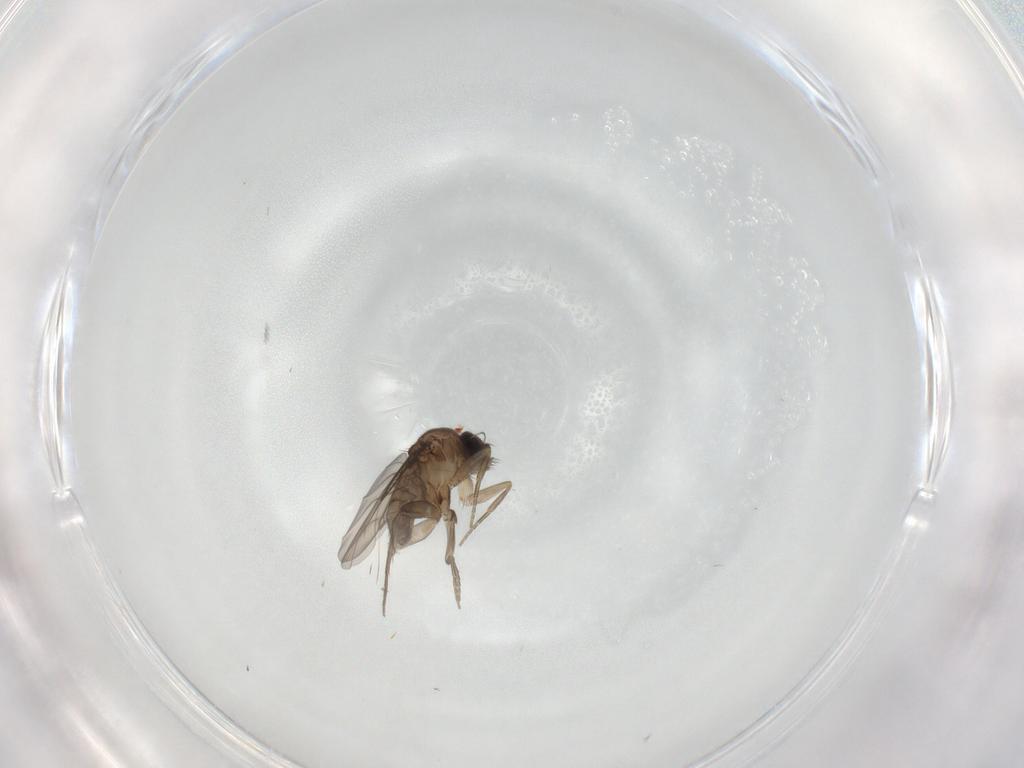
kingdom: Animalia
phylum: Arthropoda
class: Insecta
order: Diptera
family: Phoridae
